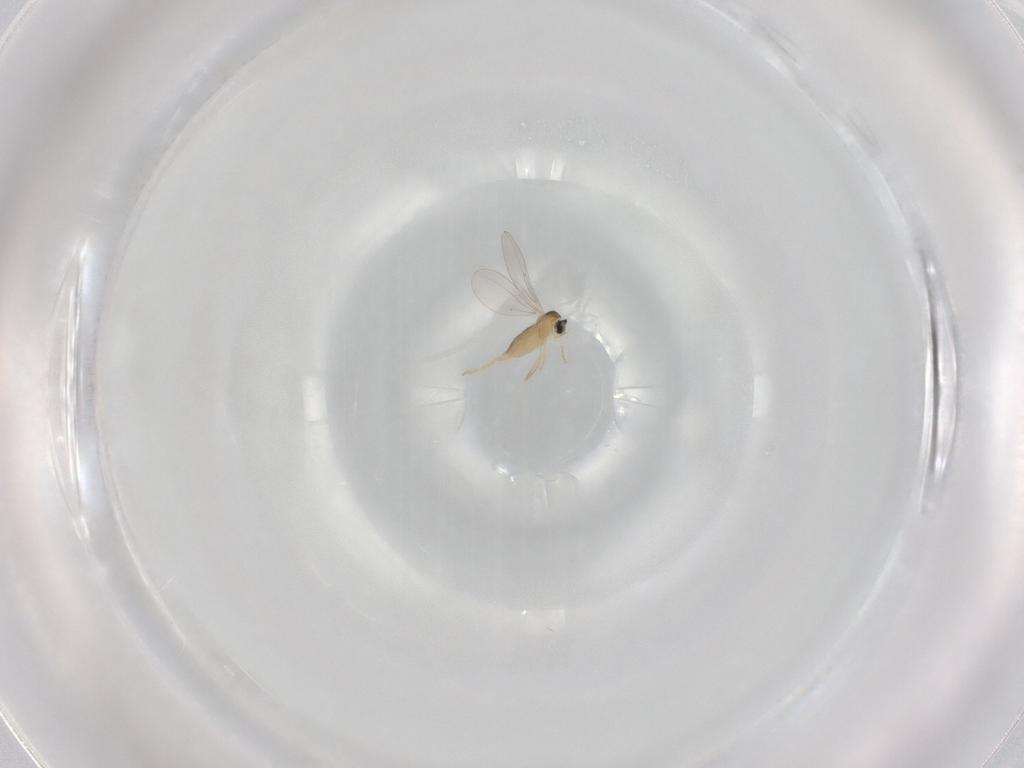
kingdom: Animalia
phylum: Arthropoda
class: Insecta
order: Diptera
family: Cecidomyiidae
